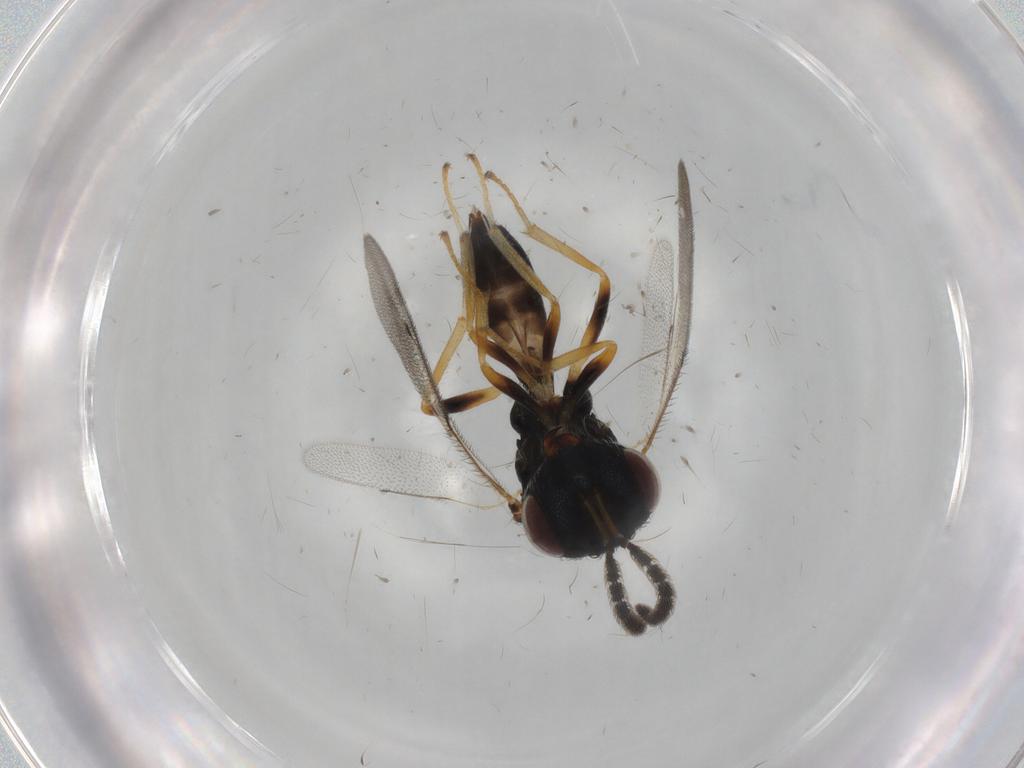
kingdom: Animalia
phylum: Arthropoda
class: Insecta
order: Hymenoptera
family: Pteromalidae
